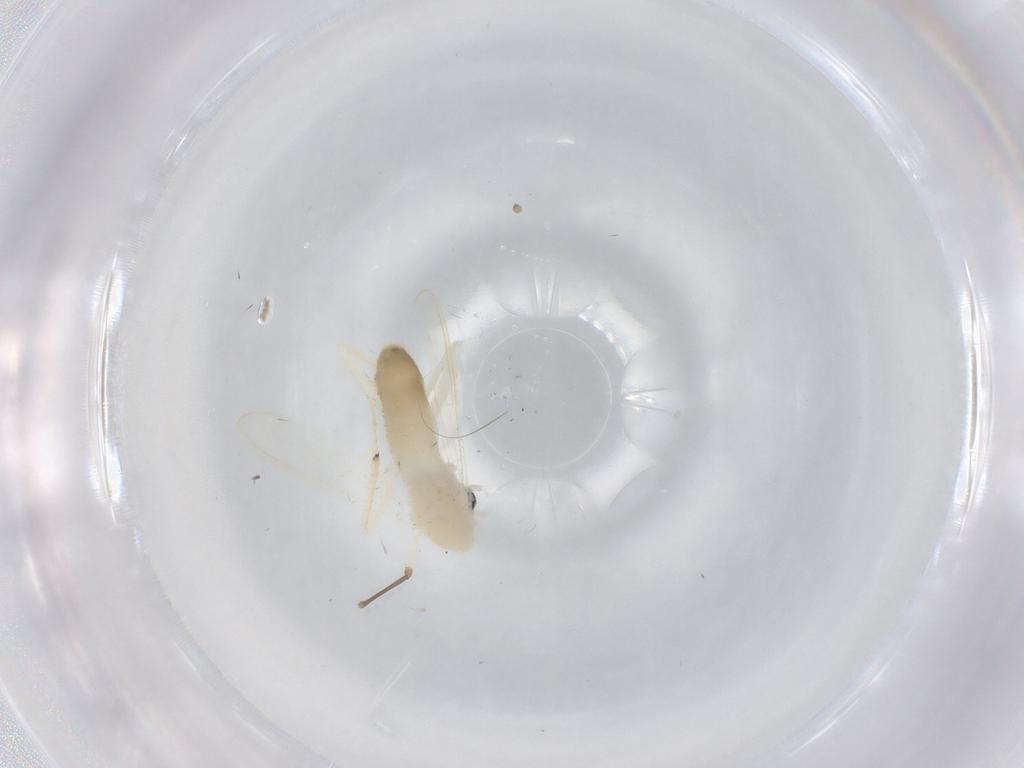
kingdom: Animalia
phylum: Arthropoda
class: Insecta
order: Diptera
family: Chironomidae
